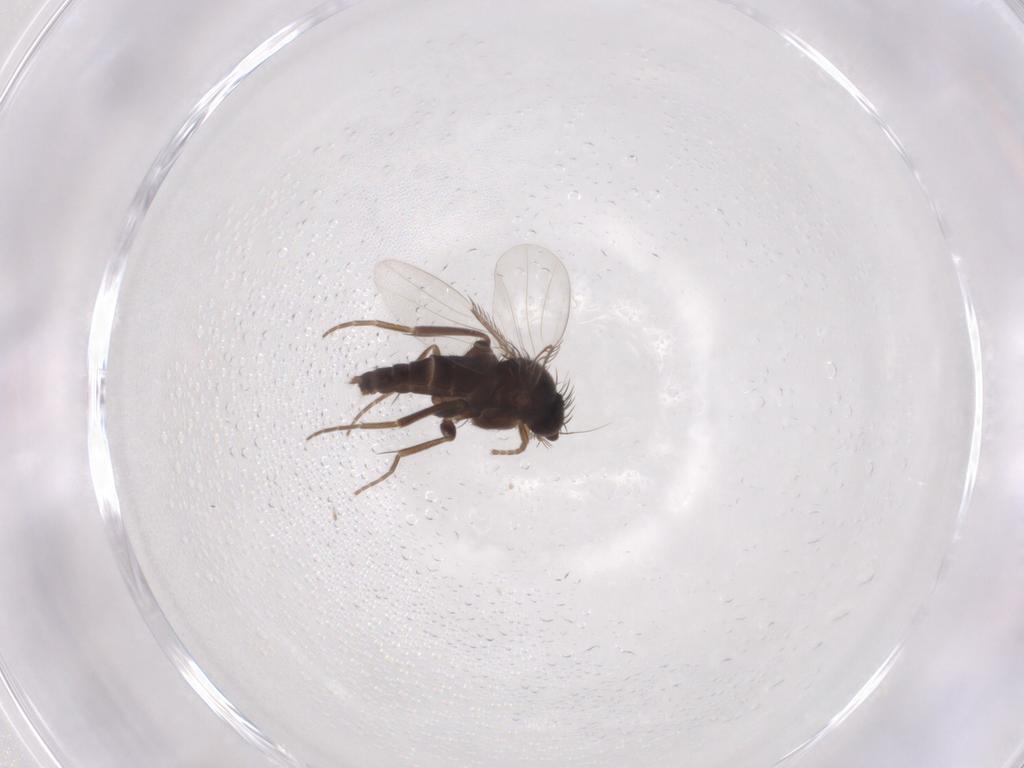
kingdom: Animalia
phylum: Arthropoda
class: Insecta
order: Diptera
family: Phoridae
